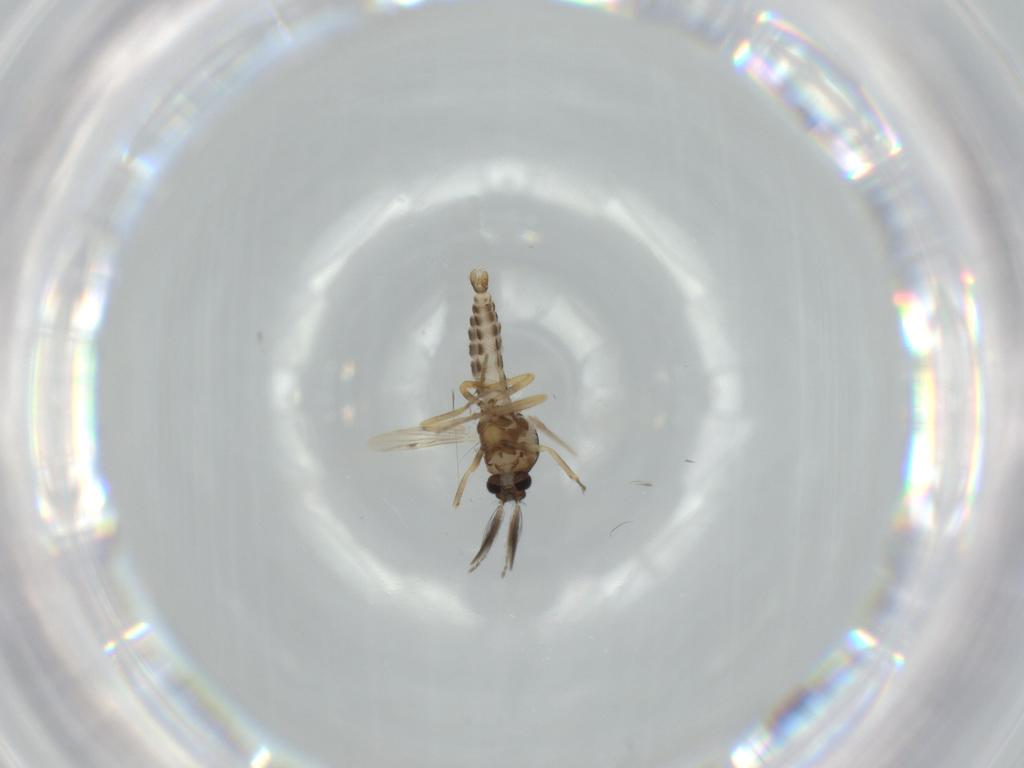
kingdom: Animalia
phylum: Arthropoda
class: Insecta
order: Diptera
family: Ceratopogonidae
